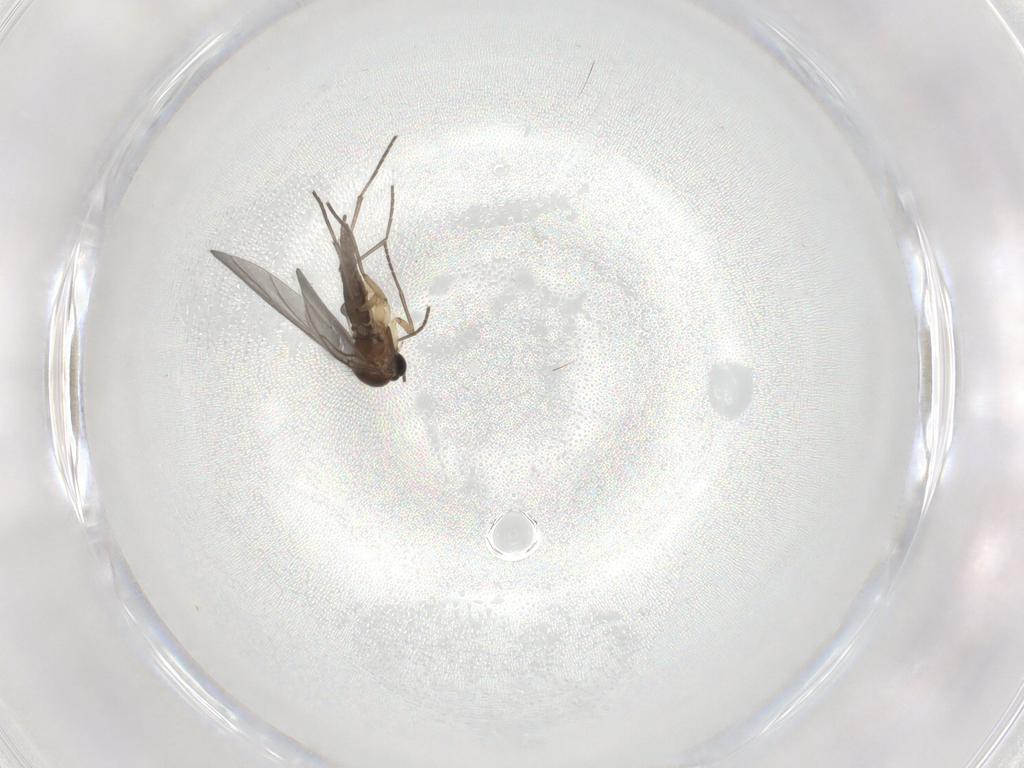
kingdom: Animalia
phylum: Arthropoda
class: Insecta
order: Diptera
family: Sciaridae
